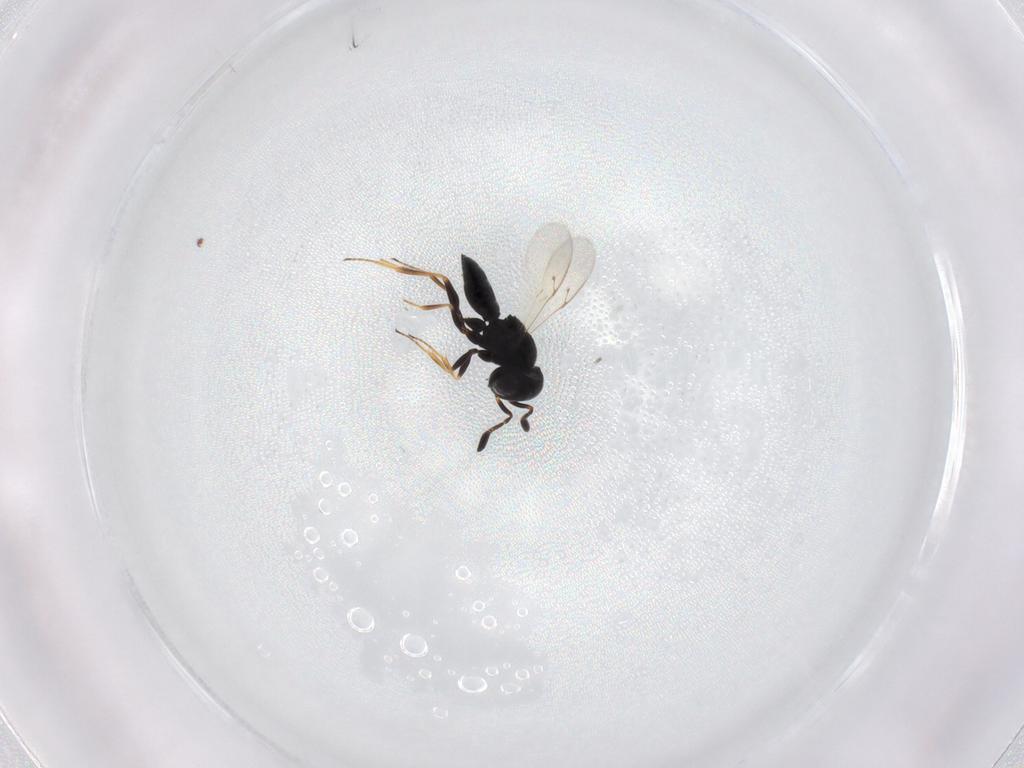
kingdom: Animalia
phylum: Arthropoda
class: Insecta
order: Hymenoptera
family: Scelionidae
